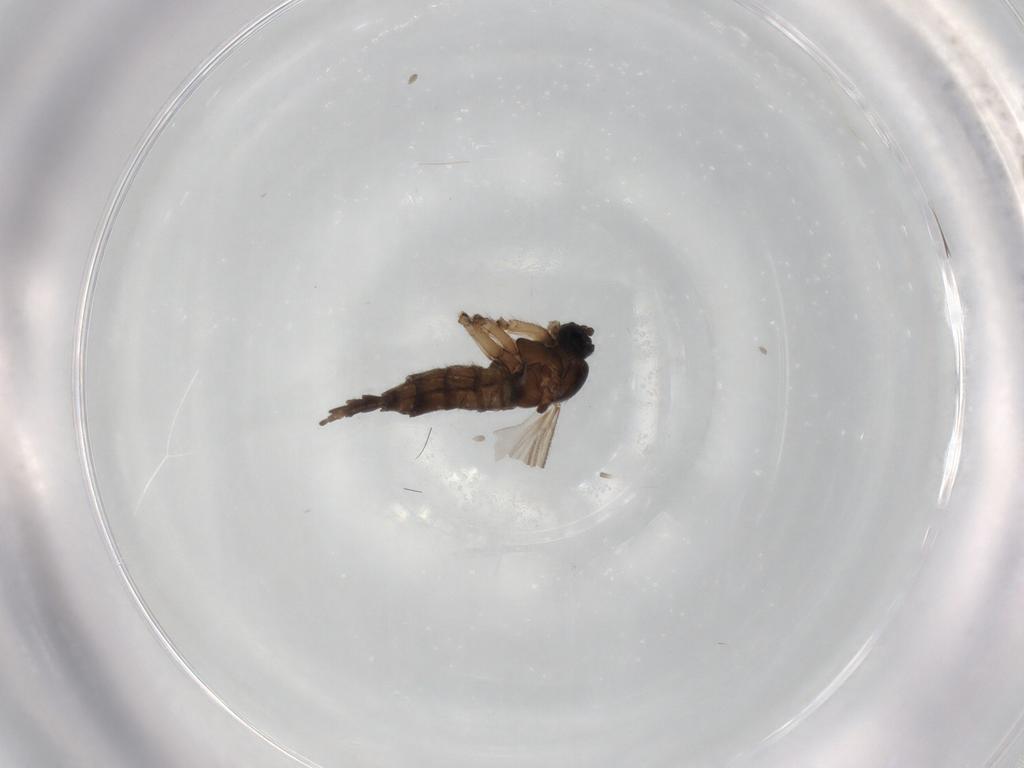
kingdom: Animalia
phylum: Arthropoda
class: Insecta
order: Diptera
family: Sciaridae
